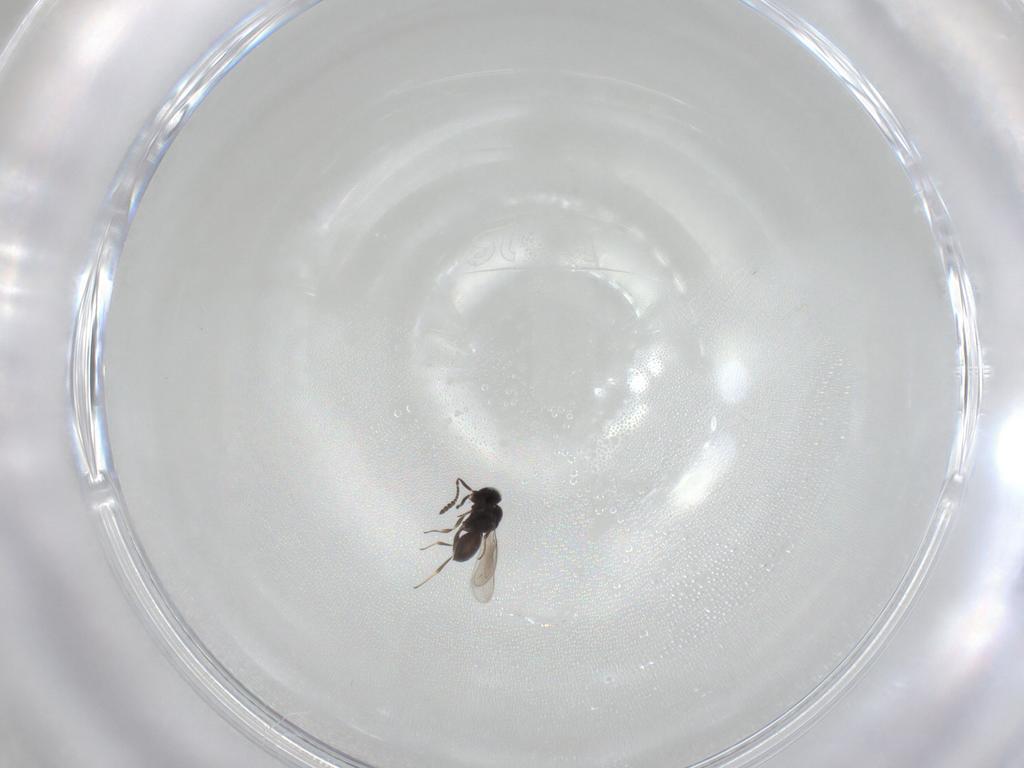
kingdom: Animalia
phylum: Arthropoda
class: Insecta
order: Hymenoptera
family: Scelionidae
